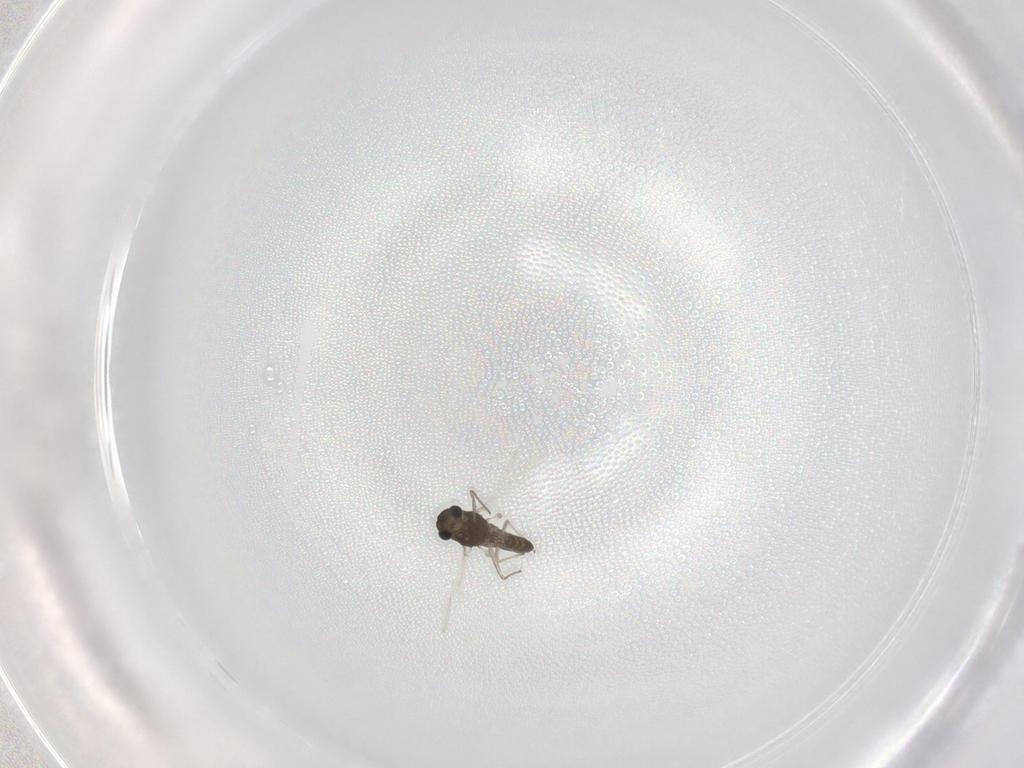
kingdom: Animalia
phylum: Arthropoda
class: Insecta
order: Diptera
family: Chironomidae
